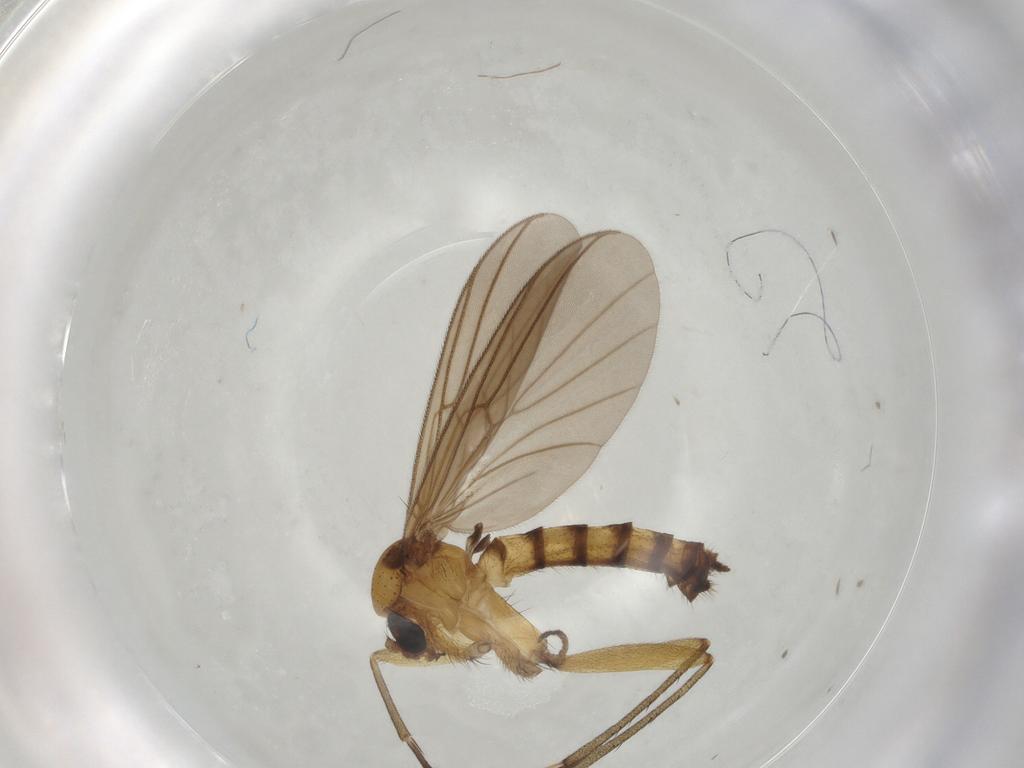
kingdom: Animalia
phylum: Arthropoda
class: Insecta
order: Diptera
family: Mycetophilidae
